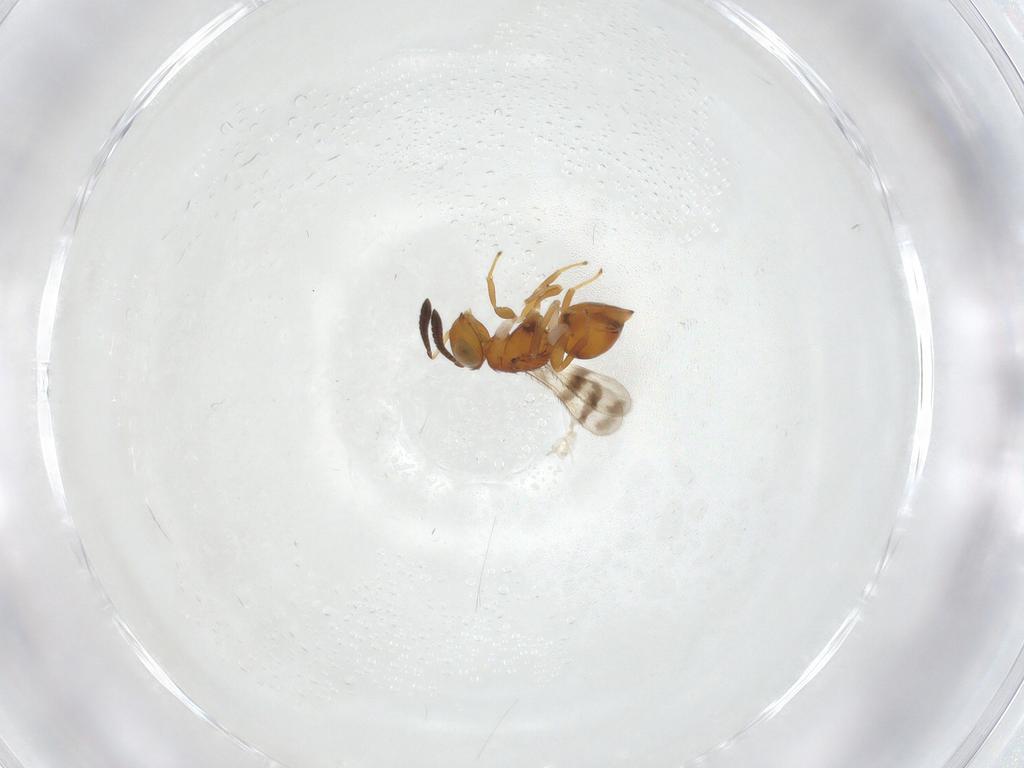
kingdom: Animalia
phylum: Arthropoda
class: Insecta
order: Hymenoptera
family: Diparidae
